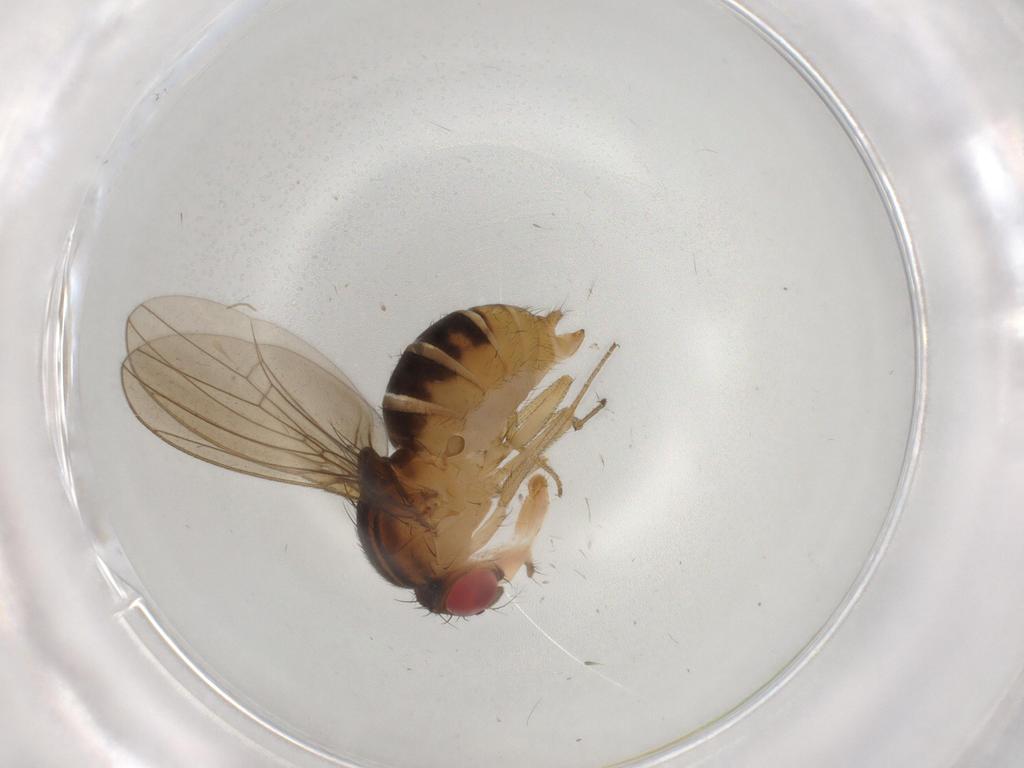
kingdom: Animalia
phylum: Arthropoda
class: Insecta
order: Diptera
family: Drosophilidae
